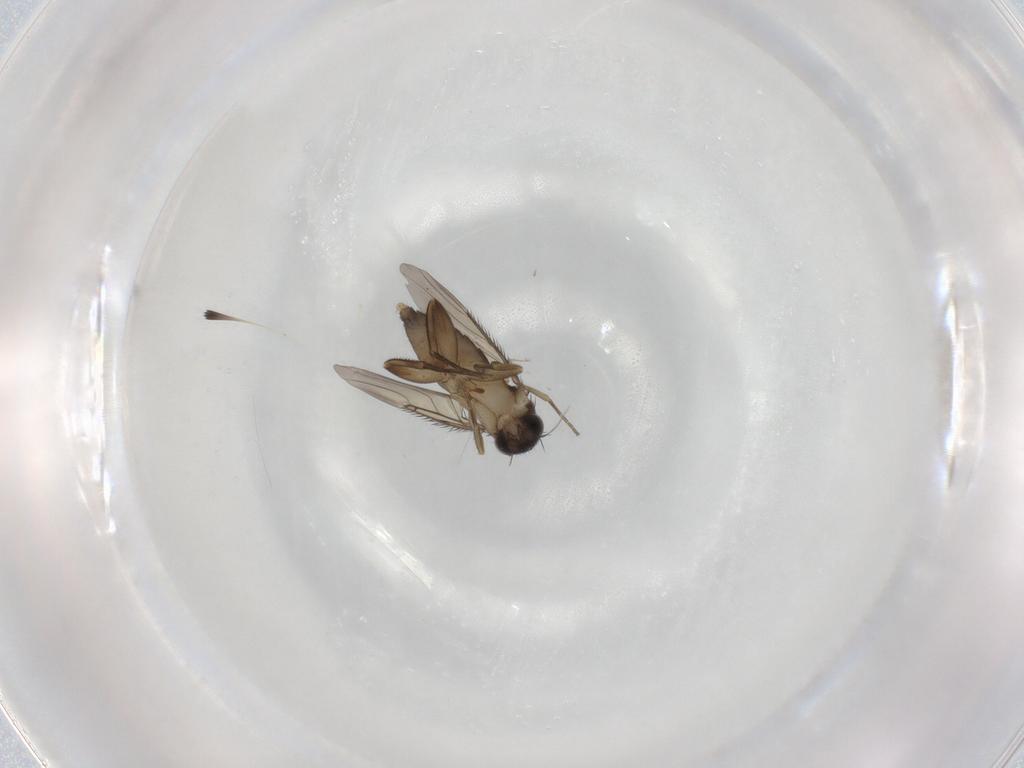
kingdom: Animalia
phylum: Arthropoda
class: Insecta
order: Diptera
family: Phoridae
